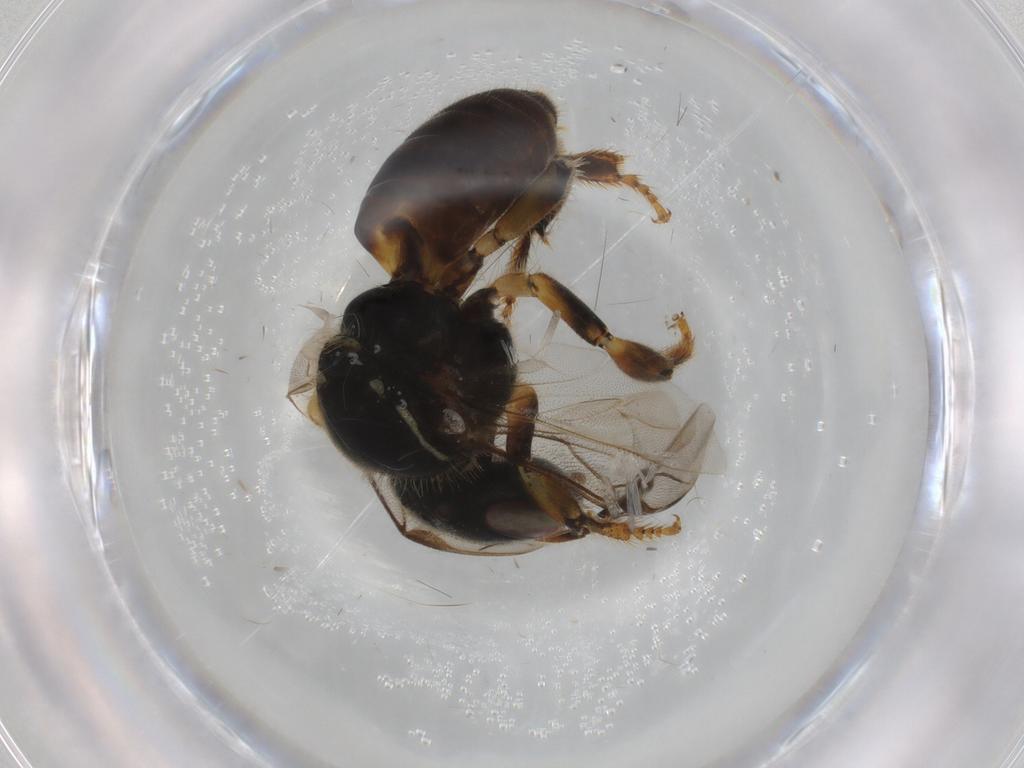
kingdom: Animalia
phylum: Arthropoda
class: Insecta
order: Hymenoptera
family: Apidae
